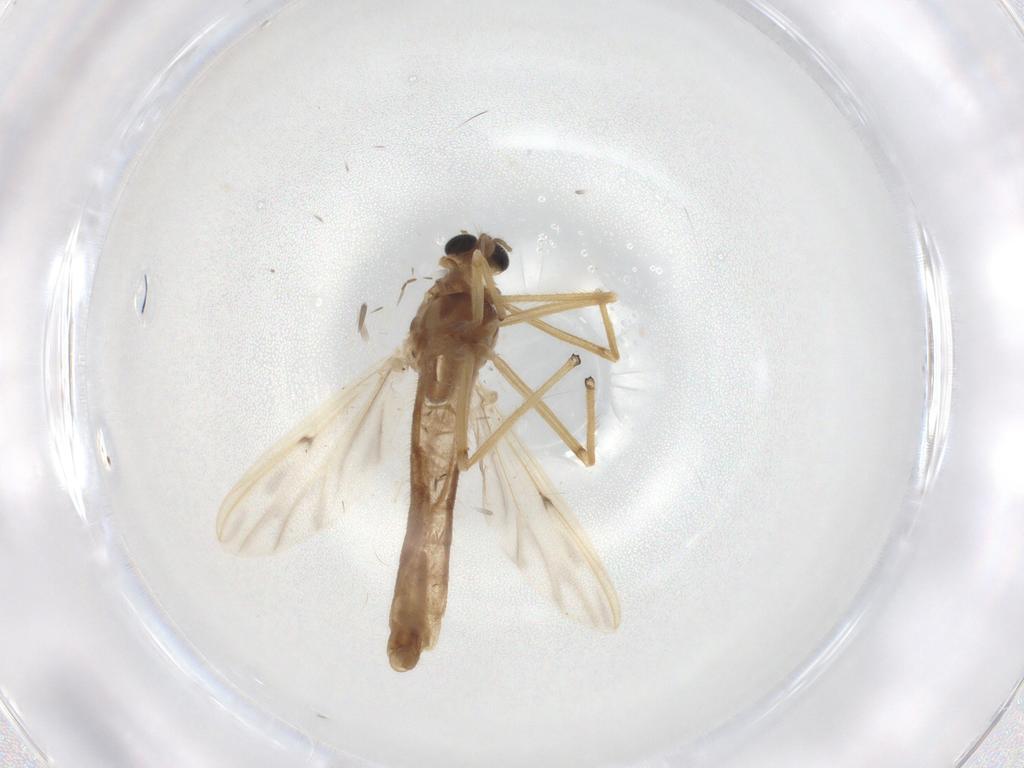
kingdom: Animalia
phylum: Arthropoda
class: Insecta
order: Diptera
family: Chironomidae
